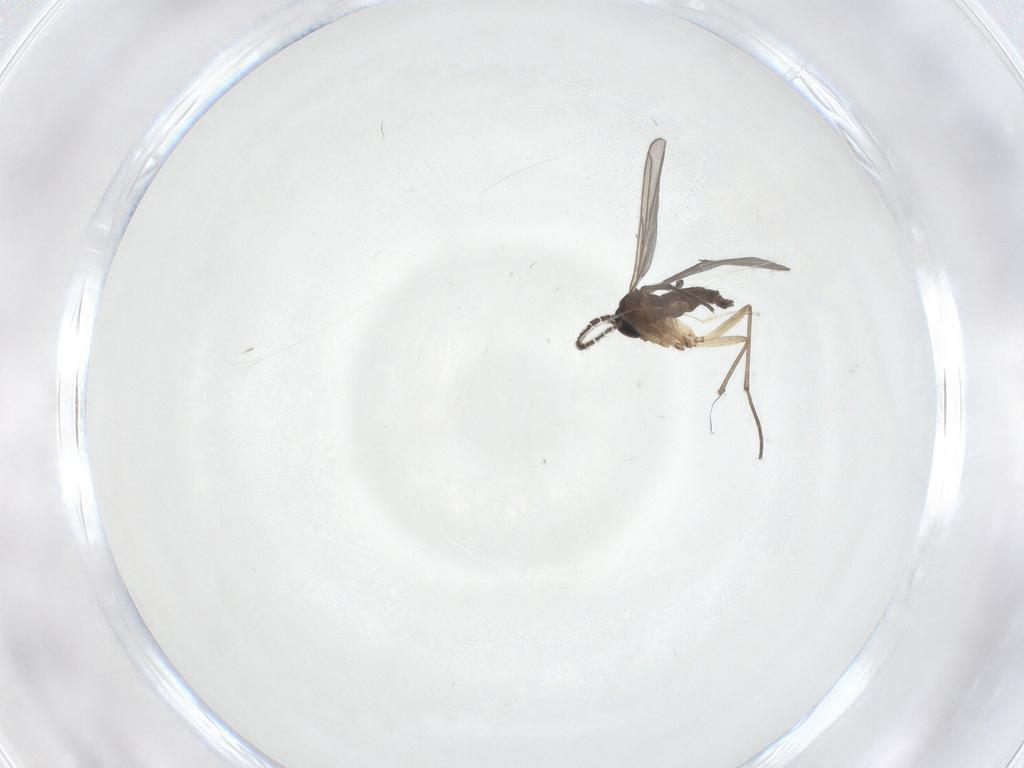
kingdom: Animalia
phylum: Arthropoda
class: Insecta
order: Diptera
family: Sciaridae
